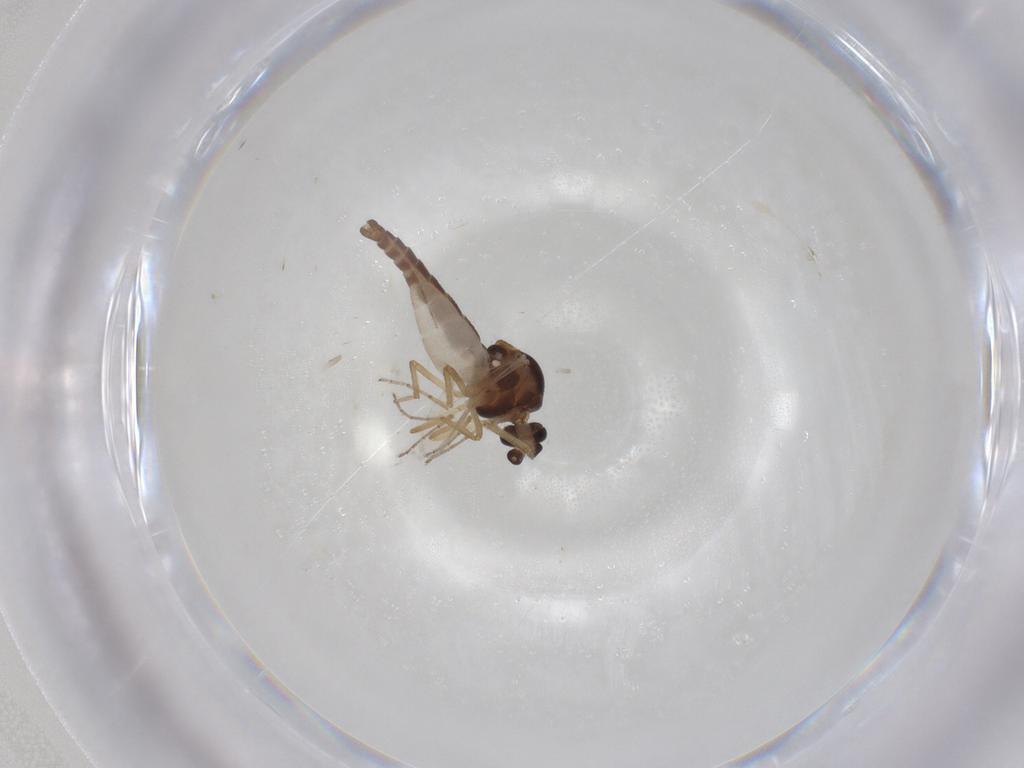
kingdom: Animalia
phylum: Arthropoda
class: Insecta
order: Diptera
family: Ceratopogonidae
